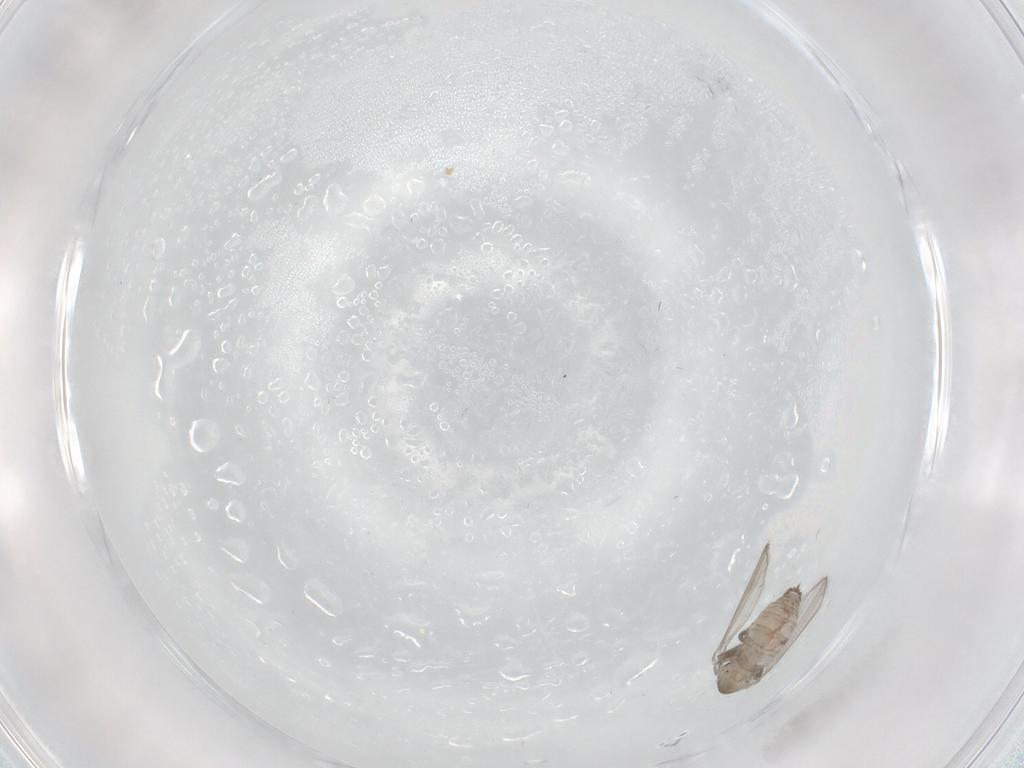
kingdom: Animalia
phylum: Arthropoda
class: Insecta
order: Diptera
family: Psychodidae
